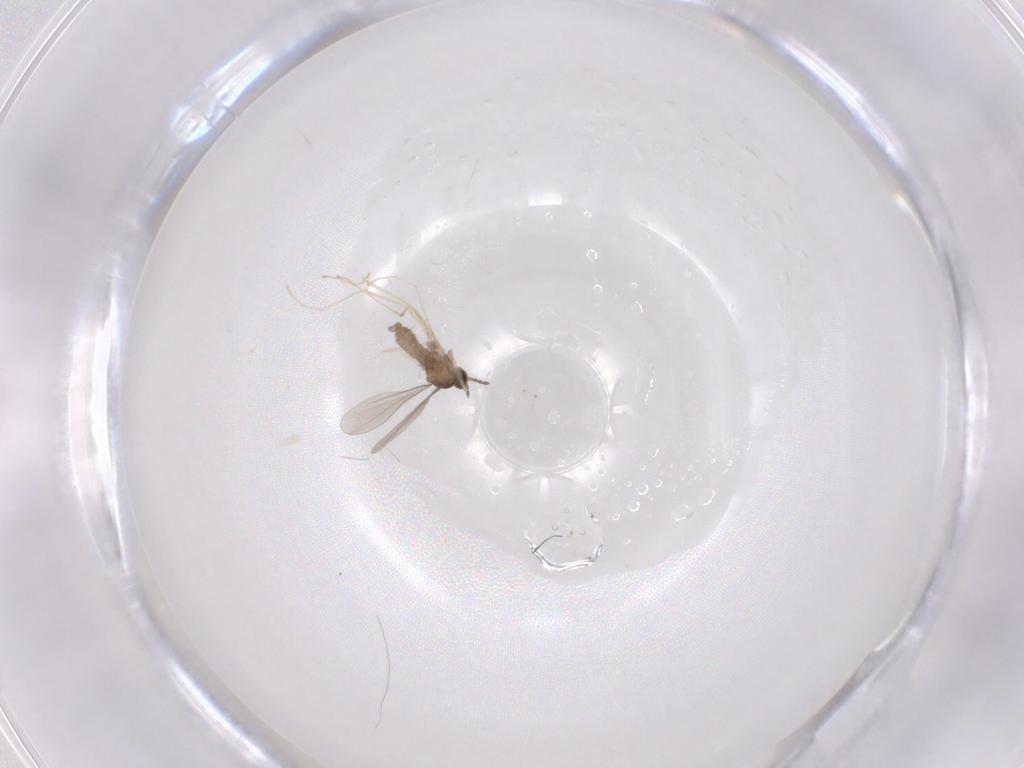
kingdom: Animalia
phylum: Arthropoda
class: Insecta
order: Diptera
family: Cecidomyiidae
